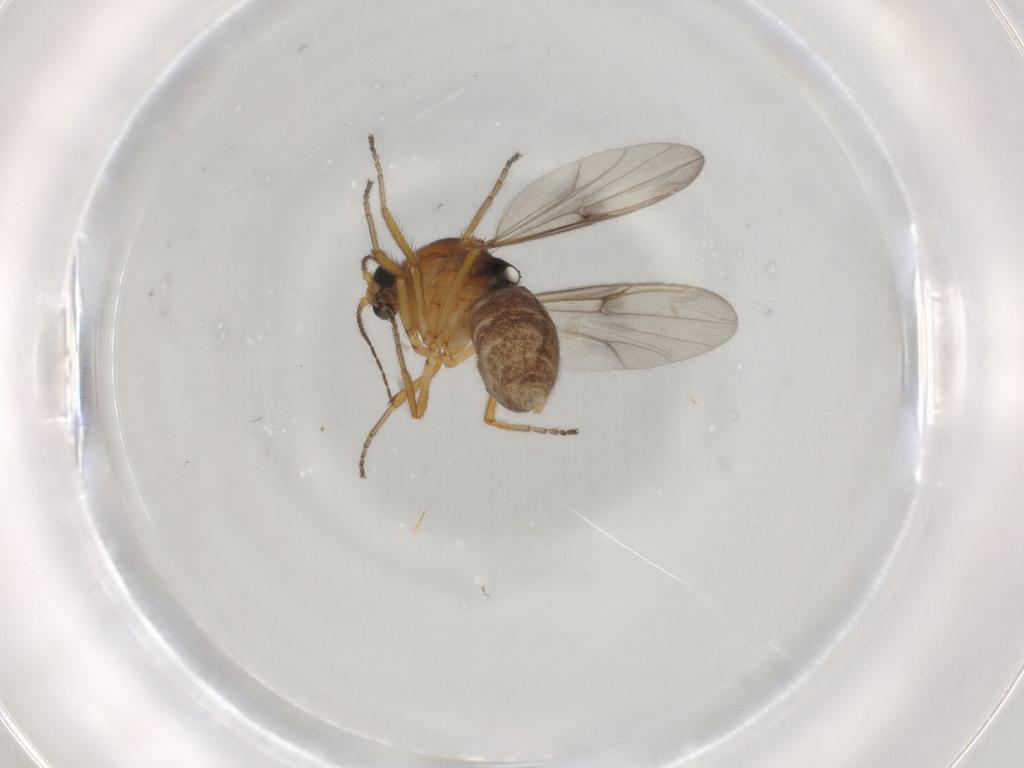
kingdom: Animalia
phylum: Arthropoda
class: Insecta
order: Diptera
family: Ceratopogonidae
